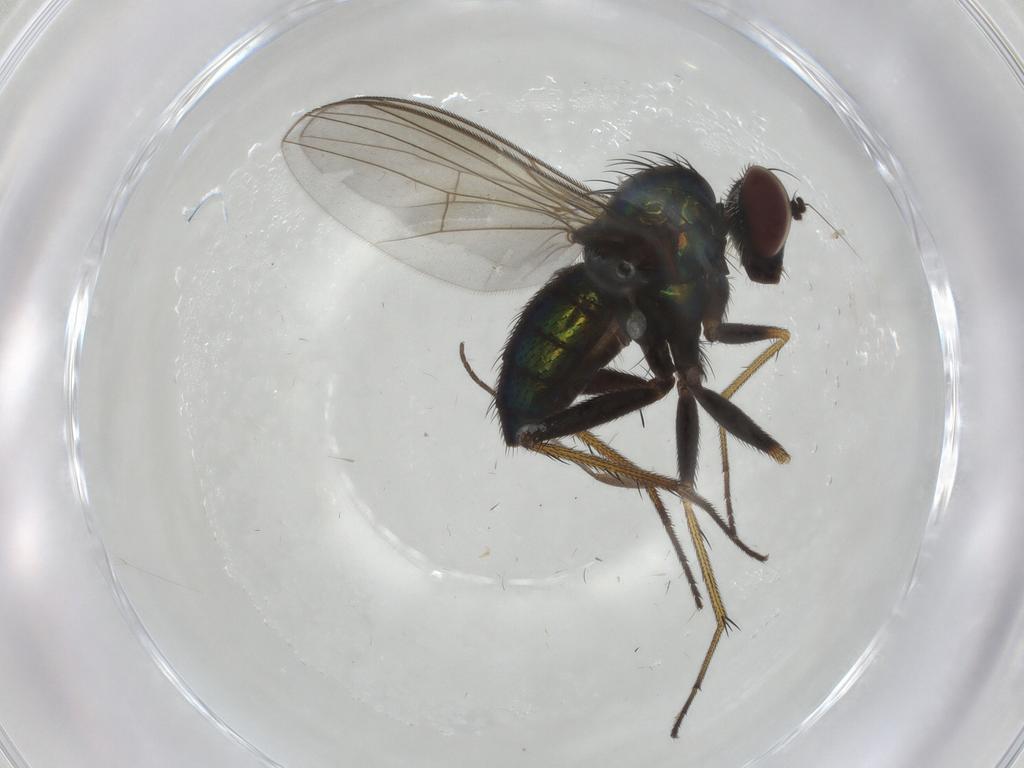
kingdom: Animalia
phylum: Arthropoda
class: Insecta
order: Diptera
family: Dolichopodidae
